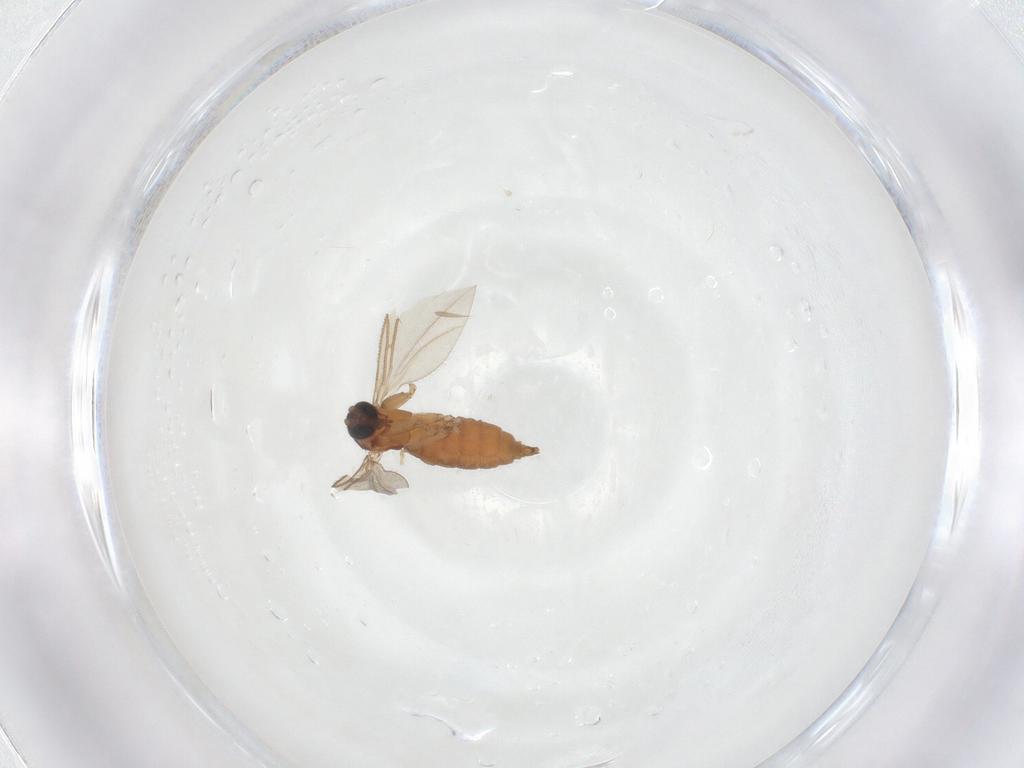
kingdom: Animalia
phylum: Arthropoda
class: Insecta
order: Diptera
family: Sciaridae
